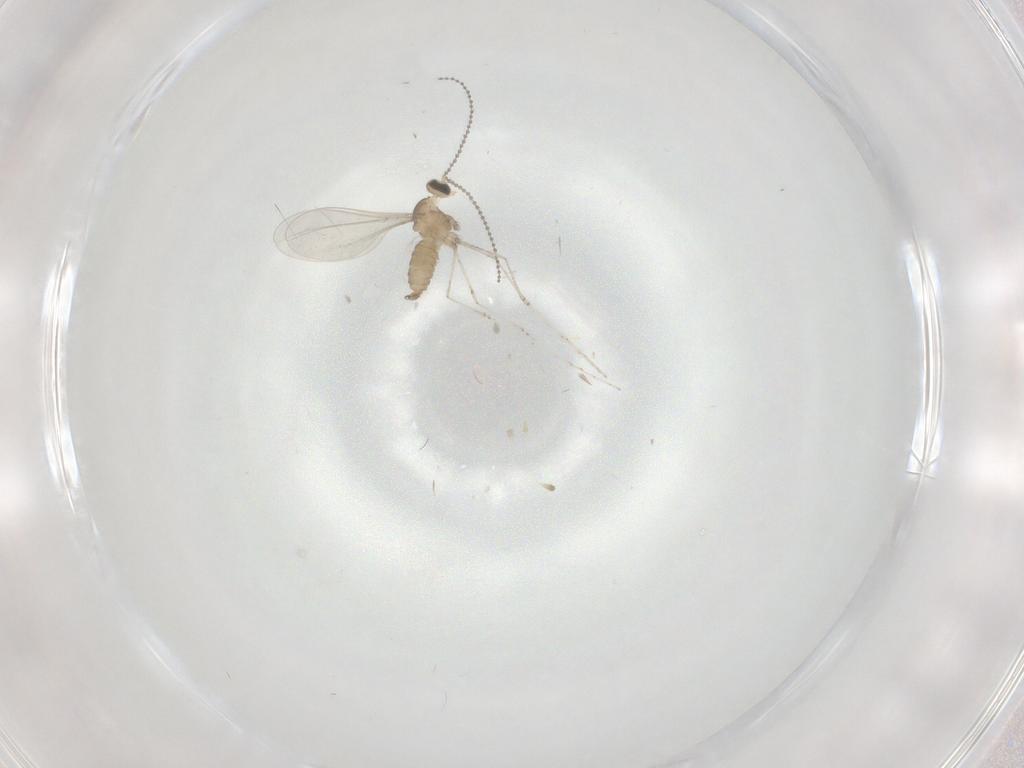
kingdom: Animalia
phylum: Arthropoda
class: Insecta
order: Diptera
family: Cecidomyiidae
